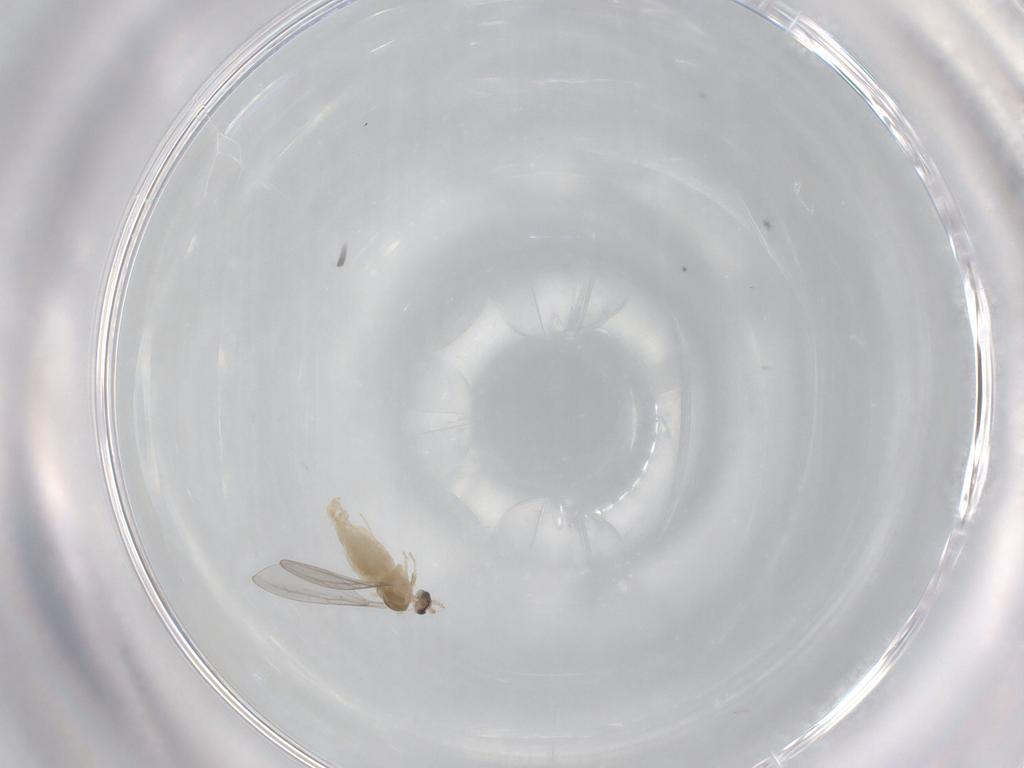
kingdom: Animalia
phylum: Arthropoda
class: Insecta
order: Diptera
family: Cecidomyiidae
